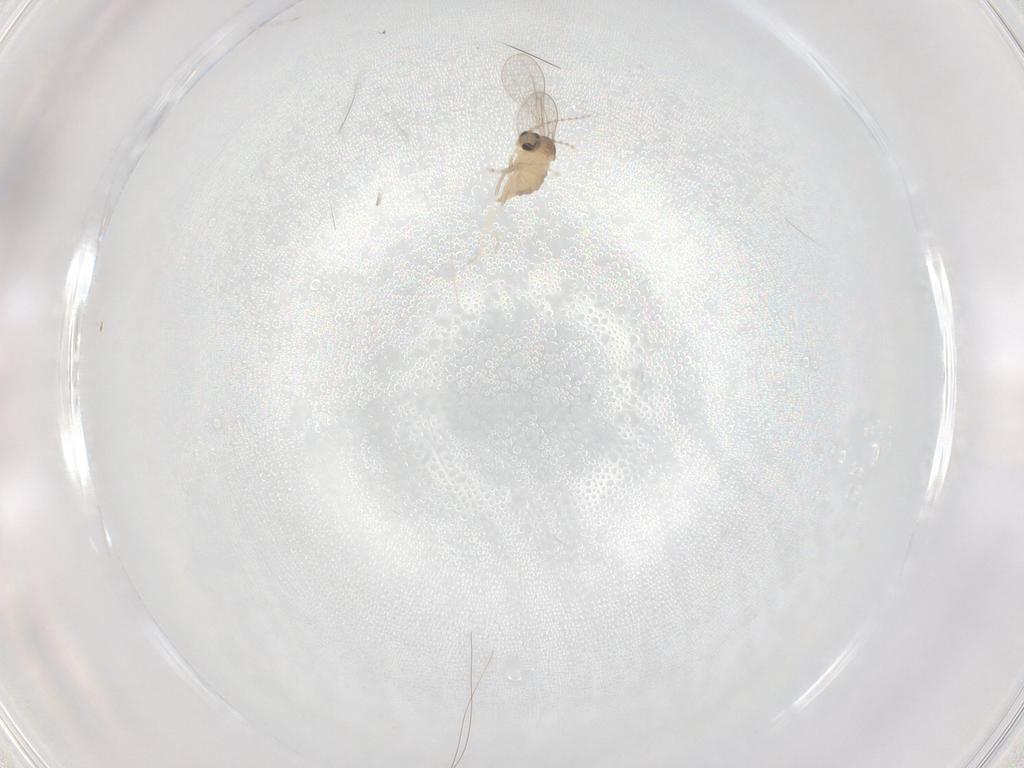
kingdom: Animalia
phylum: Arthropoda
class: Insecta
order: Diptera
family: Cecidomyiidae
